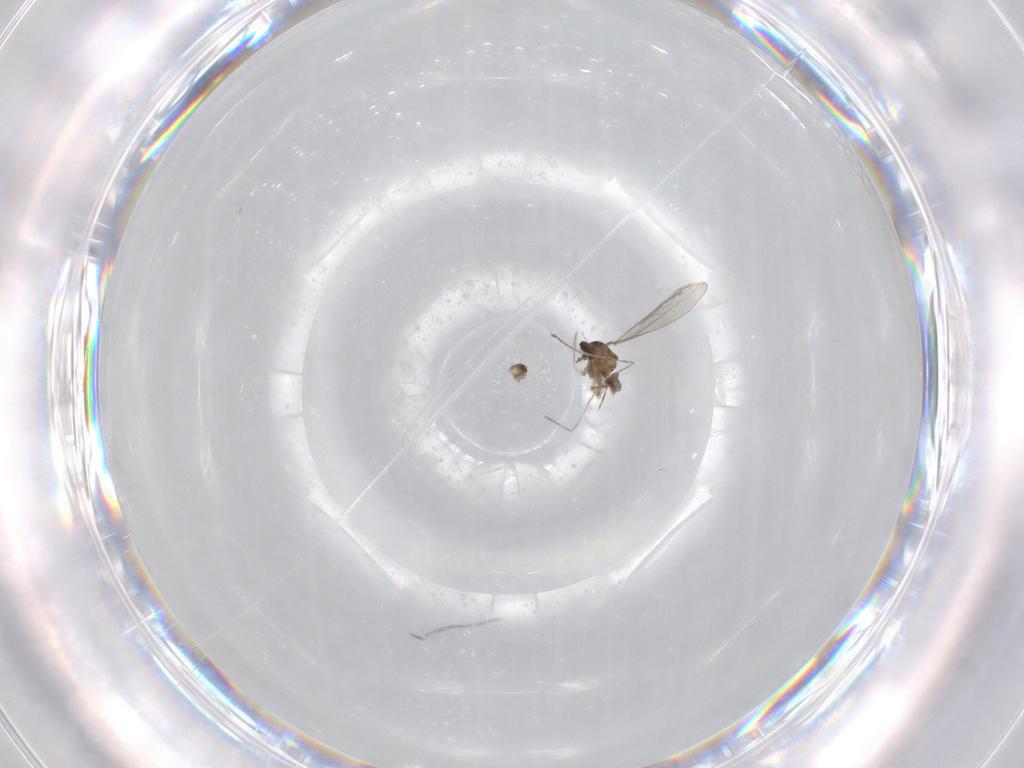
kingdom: Animalia
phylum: Arthropoda
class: Insecta
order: Diptera
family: Cecidomyiidae
